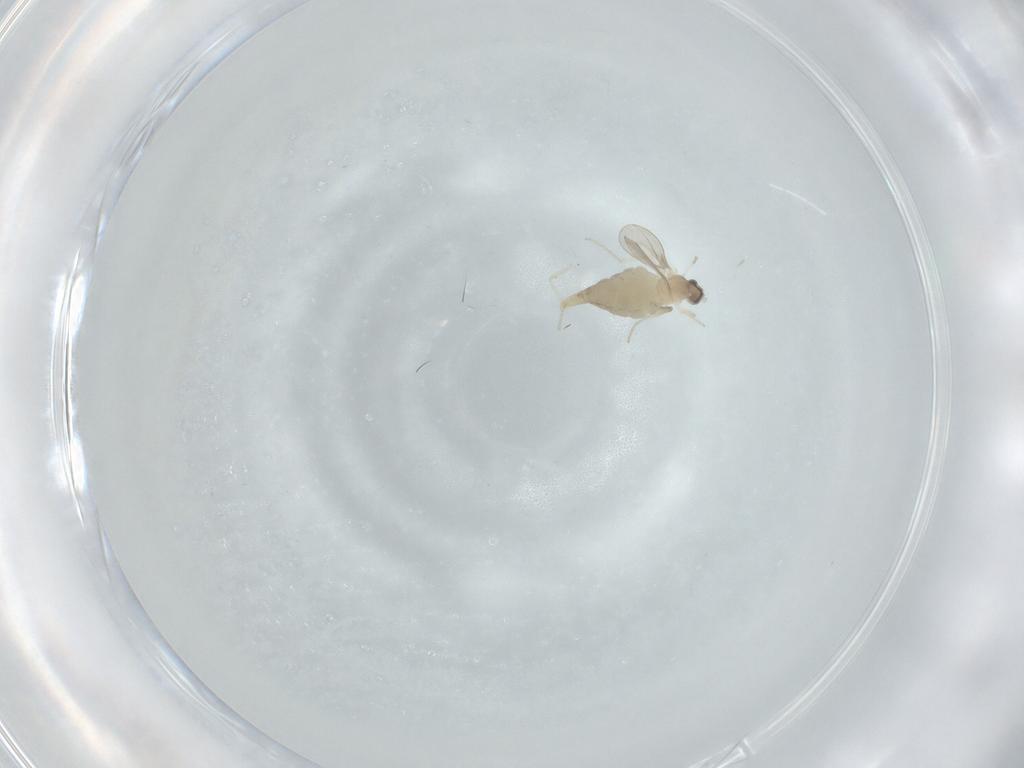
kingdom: Animalia
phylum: Arthropoda
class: Insecta
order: Diptera
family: Cecidomyiidae
